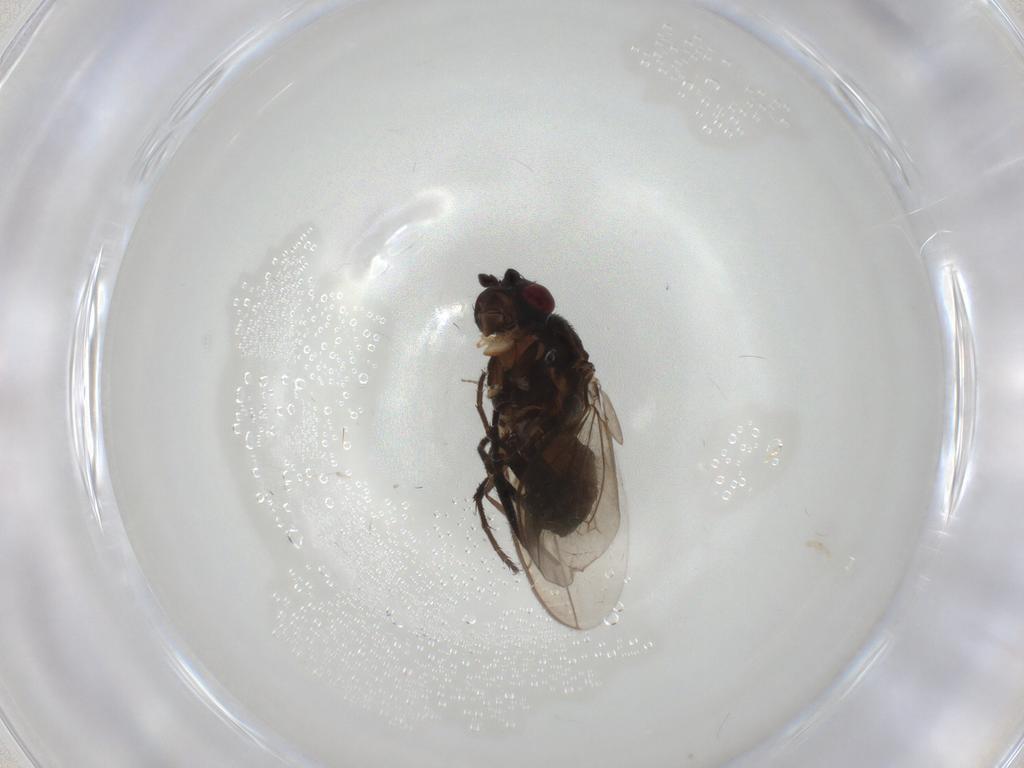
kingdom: Animalia
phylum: Arthropoda
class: Insecta
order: Diptera
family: Sphaeroceridae
